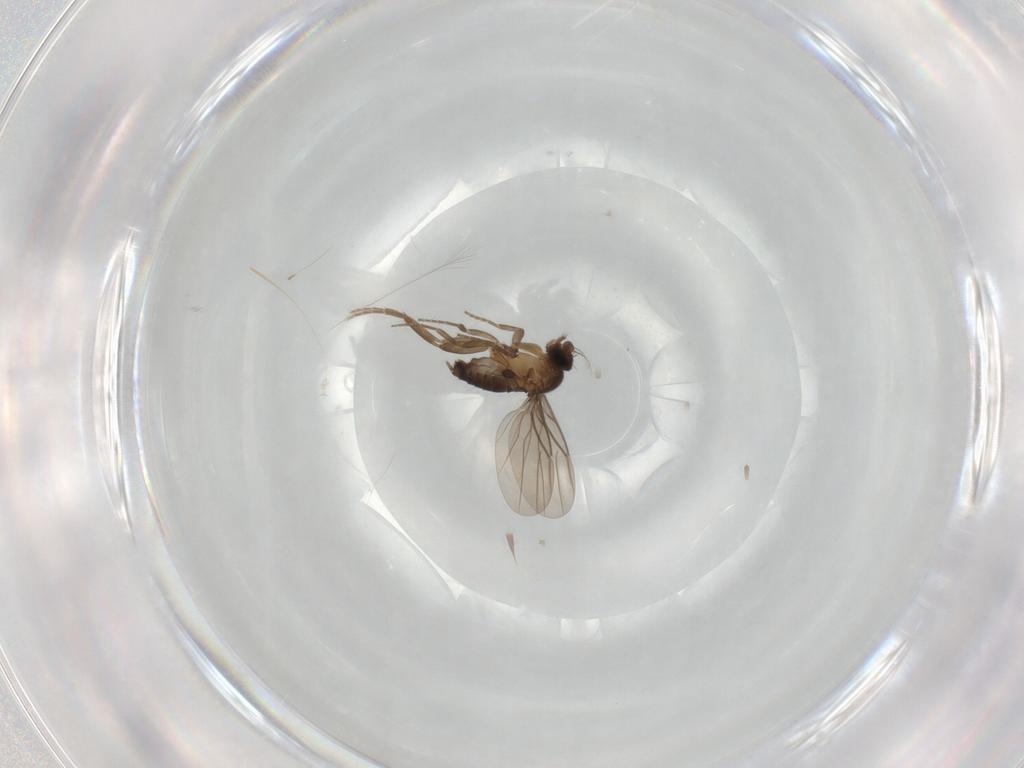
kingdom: Animalia
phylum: Arthropoda
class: Insecta
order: Diptera
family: Phoridae
